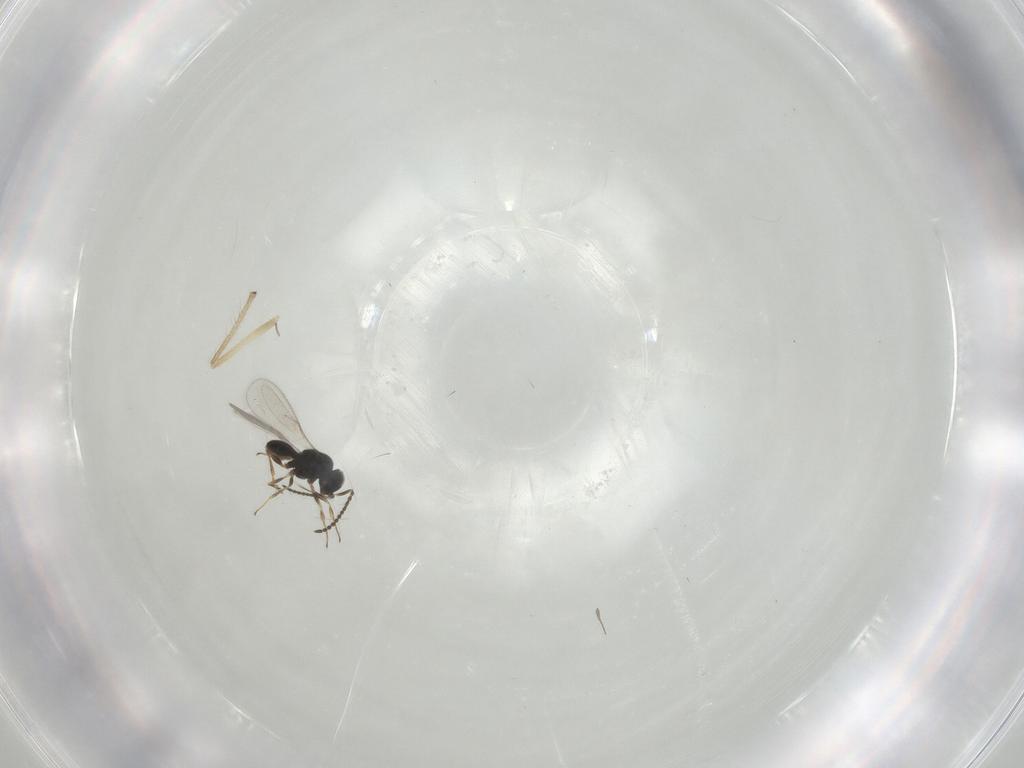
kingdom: Animalia
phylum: Arthropoda
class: Insecta
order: Hymenoptera
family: Scelionidae
